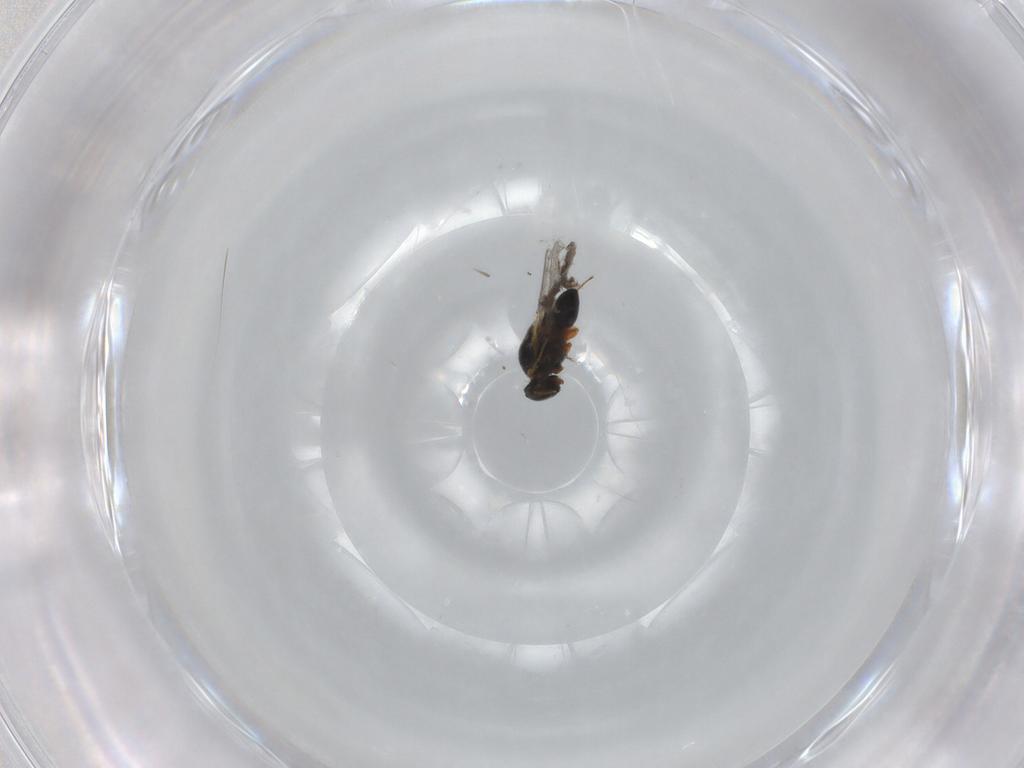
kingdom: Animalia
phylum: Arthropoda
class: Insecta
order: Hymenoptera
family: Platygastridae
